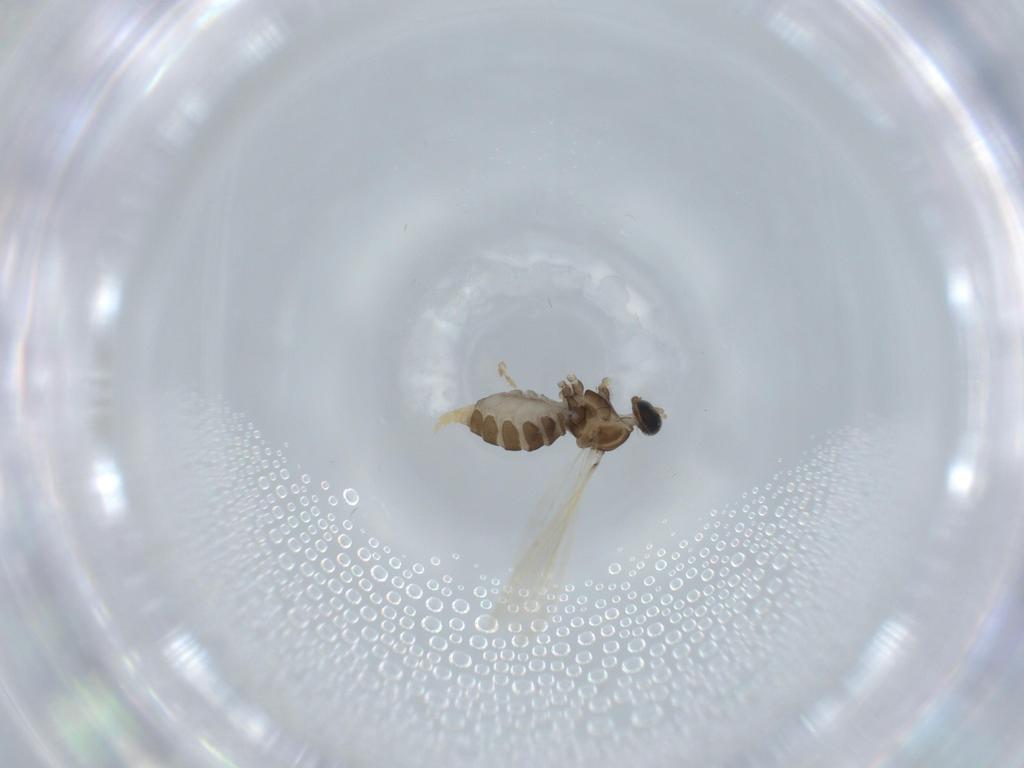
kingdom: Animalia
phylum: Arthropoda
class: Insecta
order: Diptera
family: Cecidomyiidae
